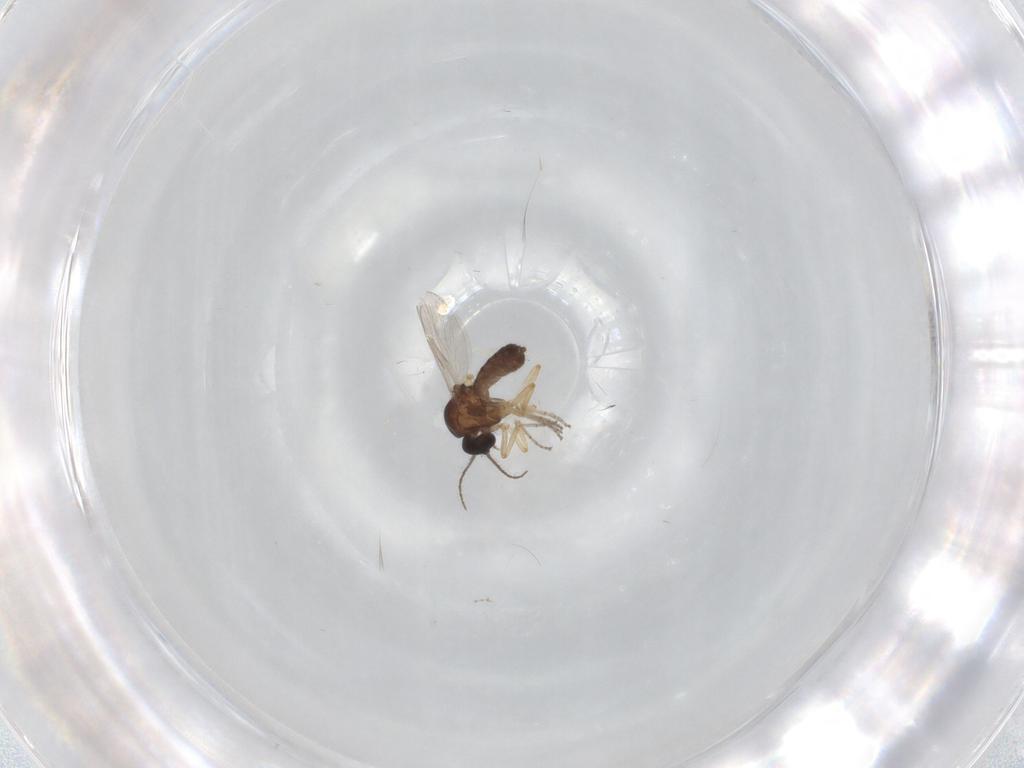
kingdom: Animalia
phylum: Arthropoda
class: Insecta
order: Diptera
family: Ceratopogonidae
